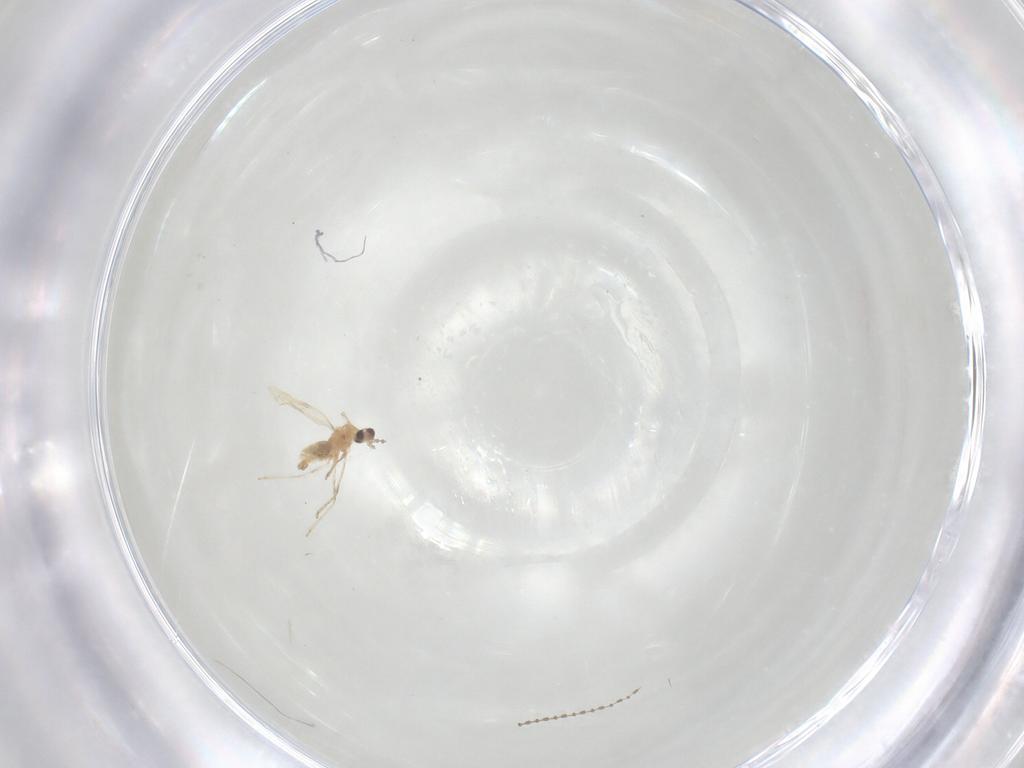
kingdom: Animalia
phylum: Arthropoda
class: Insecta
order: Diptera
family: Cecidomyiidae
